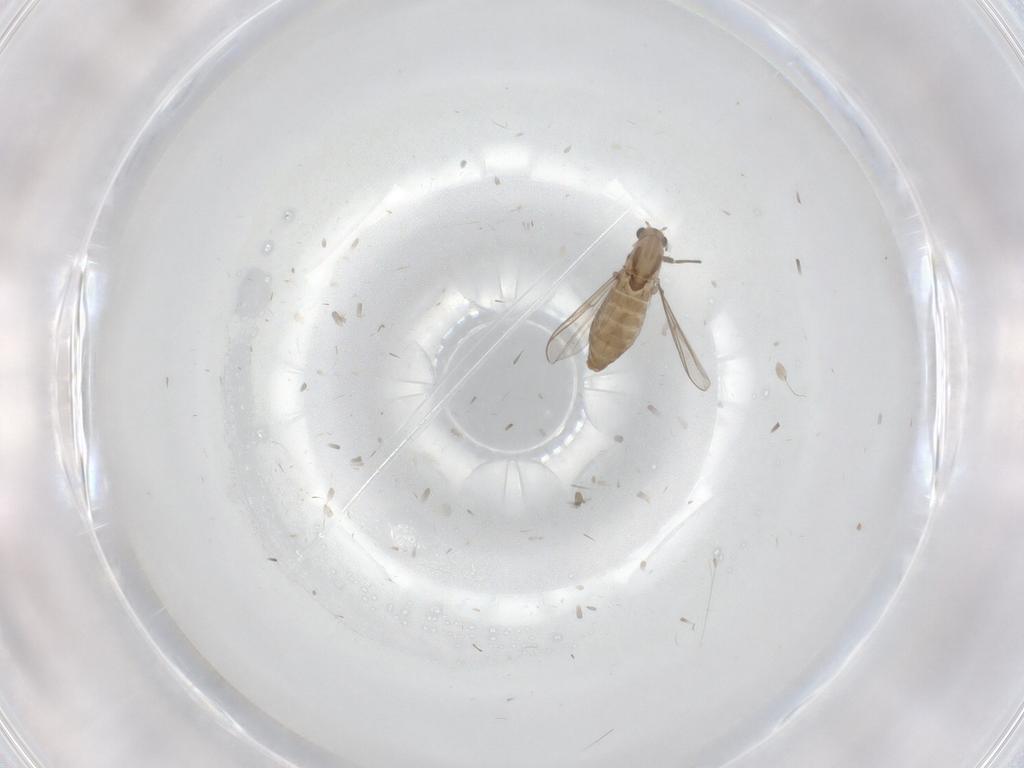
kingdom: Animalia
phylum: Arthropoda
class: Insecta
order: Diptera
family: Chironomidae
